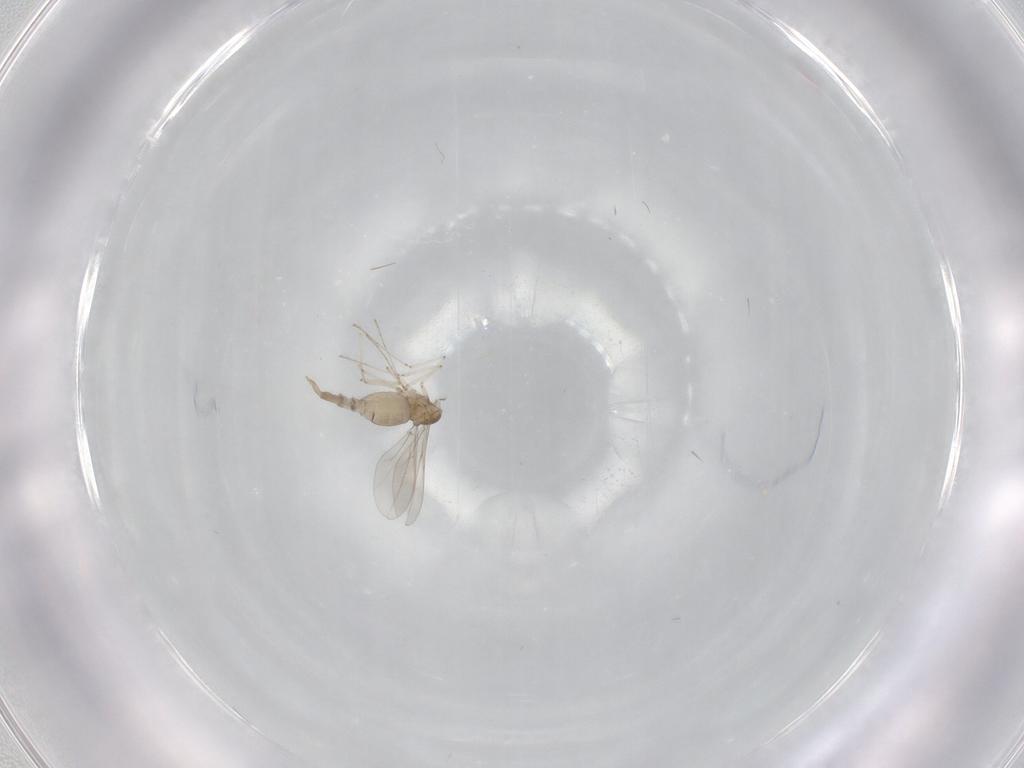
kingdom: Animalia
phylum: Arthropoda
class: Insecta
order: Diptera
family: Cecidomyiidae
